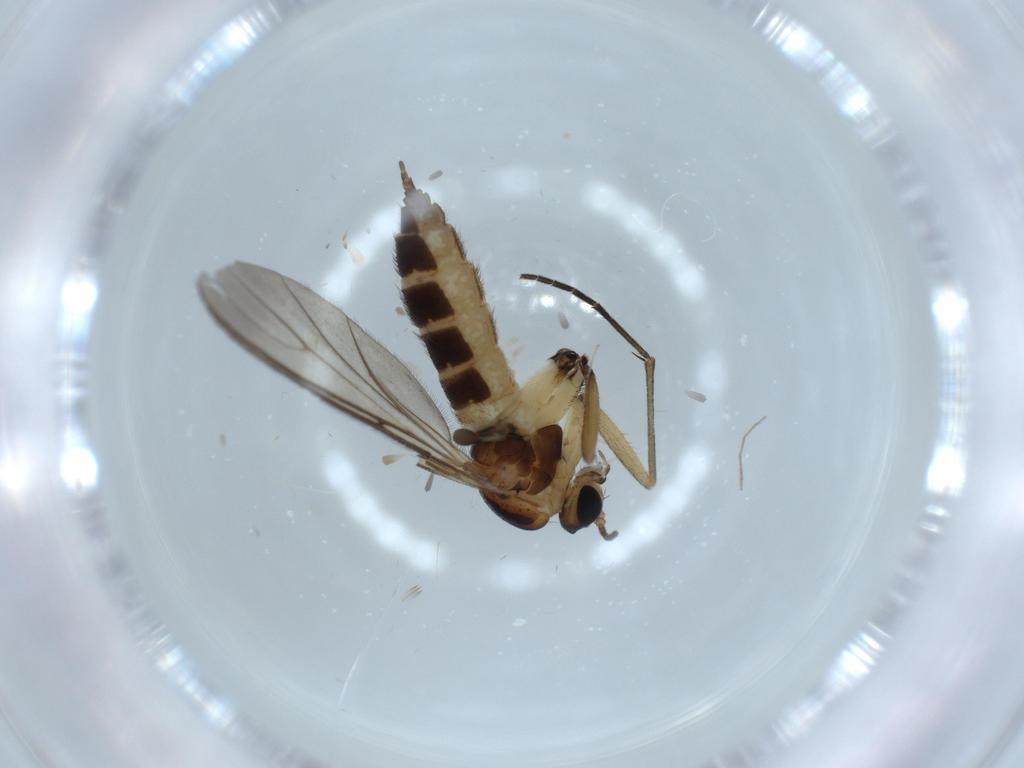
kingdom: Animalia
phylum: Arthropoda
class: Insecta
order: Diptera
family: Sciaridae
